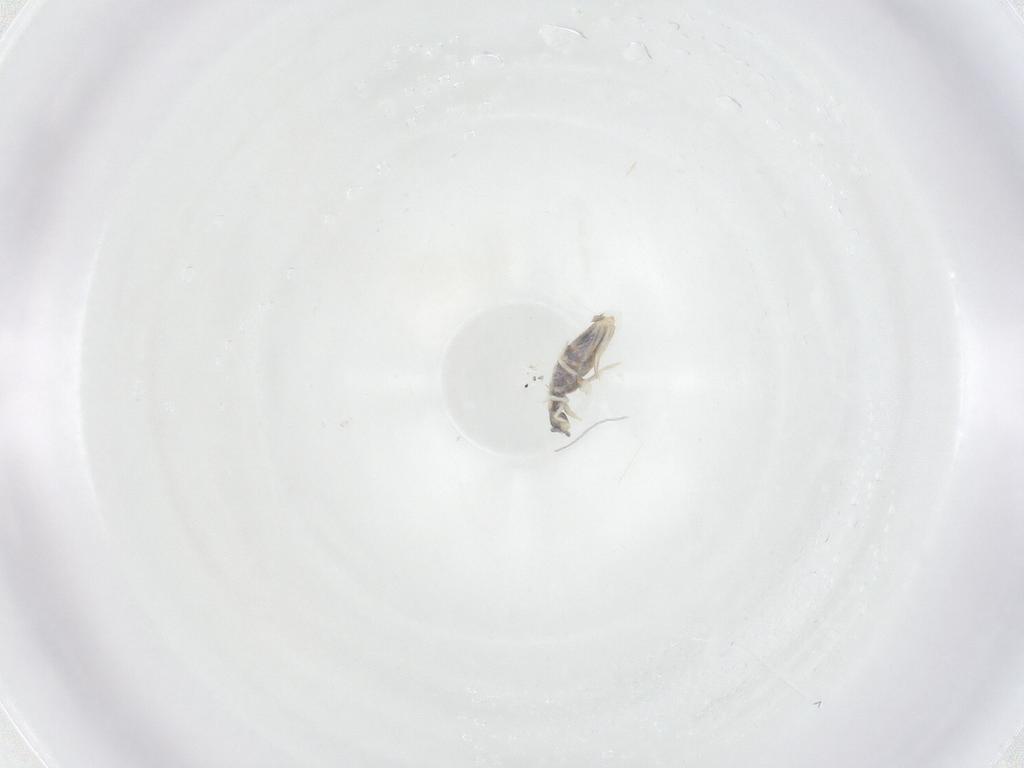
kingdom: Animalia
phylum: Arthropoda
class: Collembola
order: Entomobryomorpha
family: Entomobryidae
